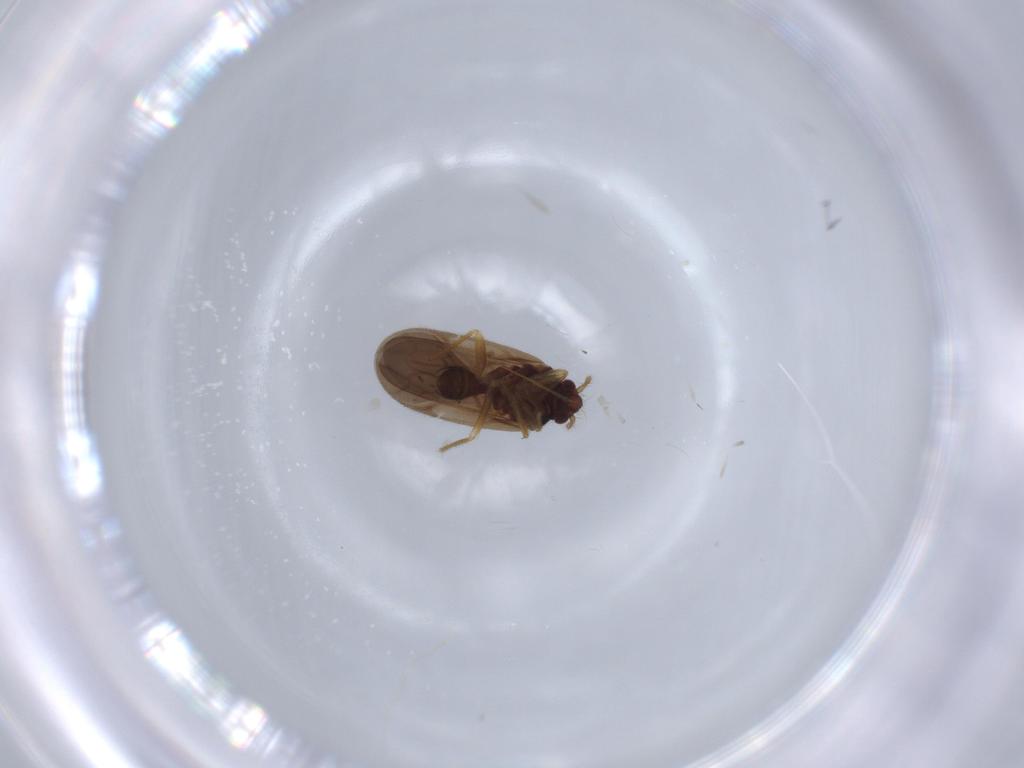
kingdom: Animalia
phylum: Arthropoda
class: Insecta
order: Hemiptera
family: Ceratocombidae
